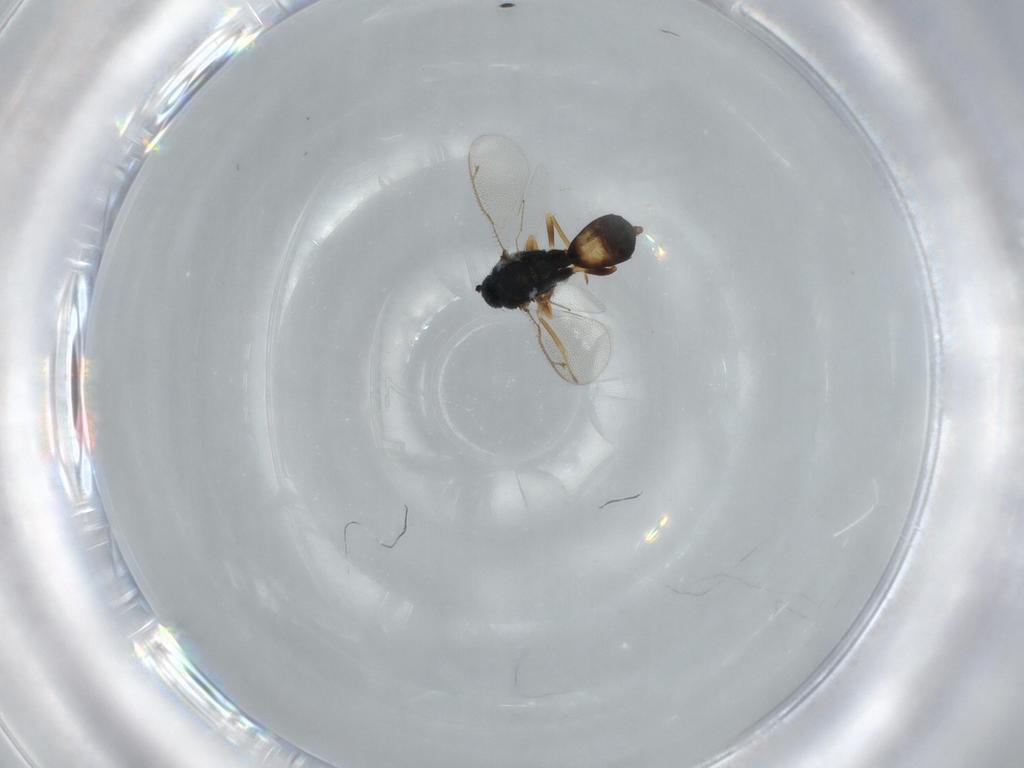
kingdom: Animalia
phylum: Arthropoda
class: Insecta
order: Hymenoptera
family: Eulophidae
